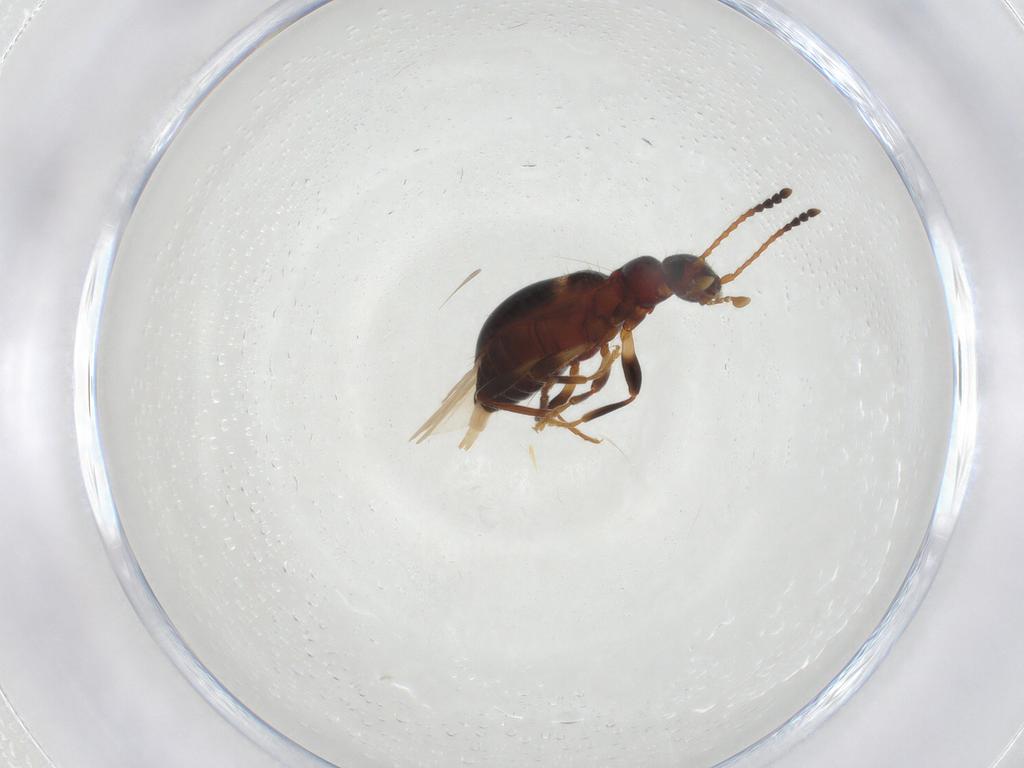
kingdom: Animalia
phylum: Arthropoda
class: Insecta
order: Coleoptera
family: Anthicidae
